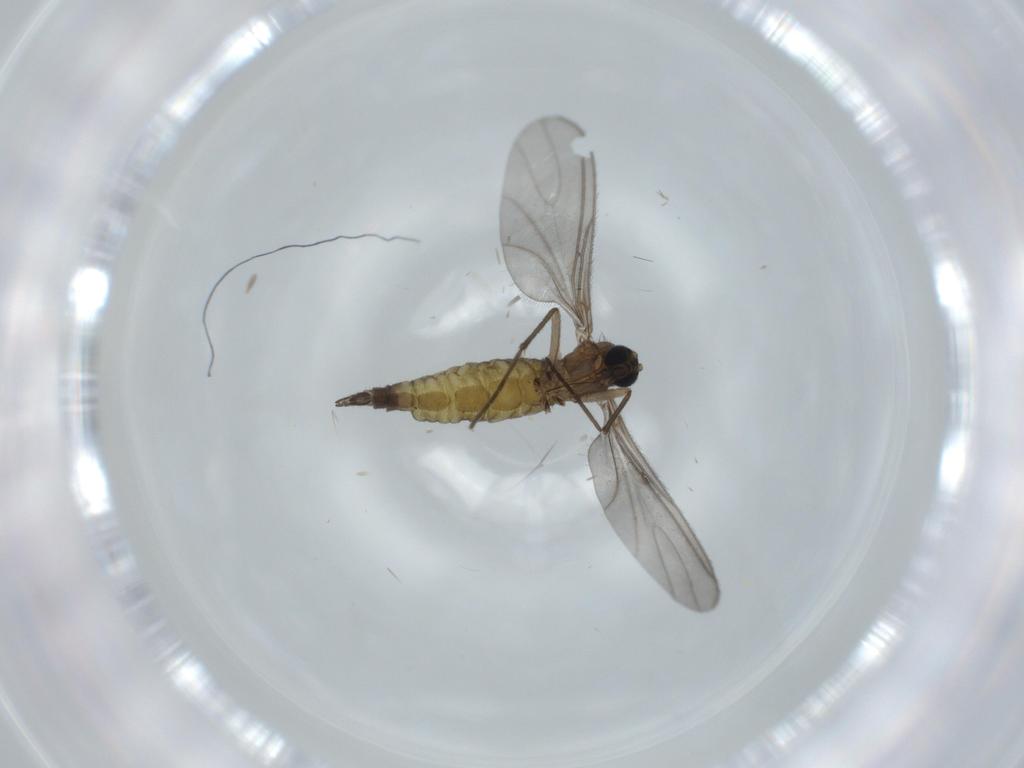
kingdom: Animalia
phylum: Arthropoda
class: Insecta
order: Diptera
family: Sciaridae
